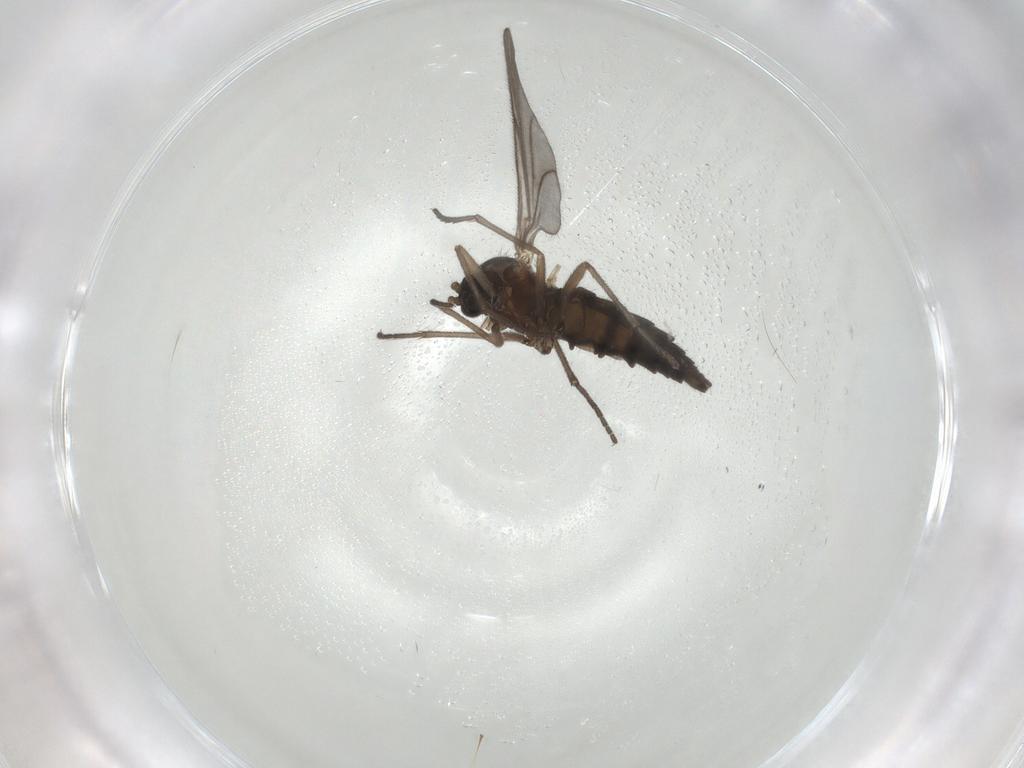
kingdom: Animalia
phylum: Arthropoda
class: Insecta
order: Diptera
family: Sciaridae
